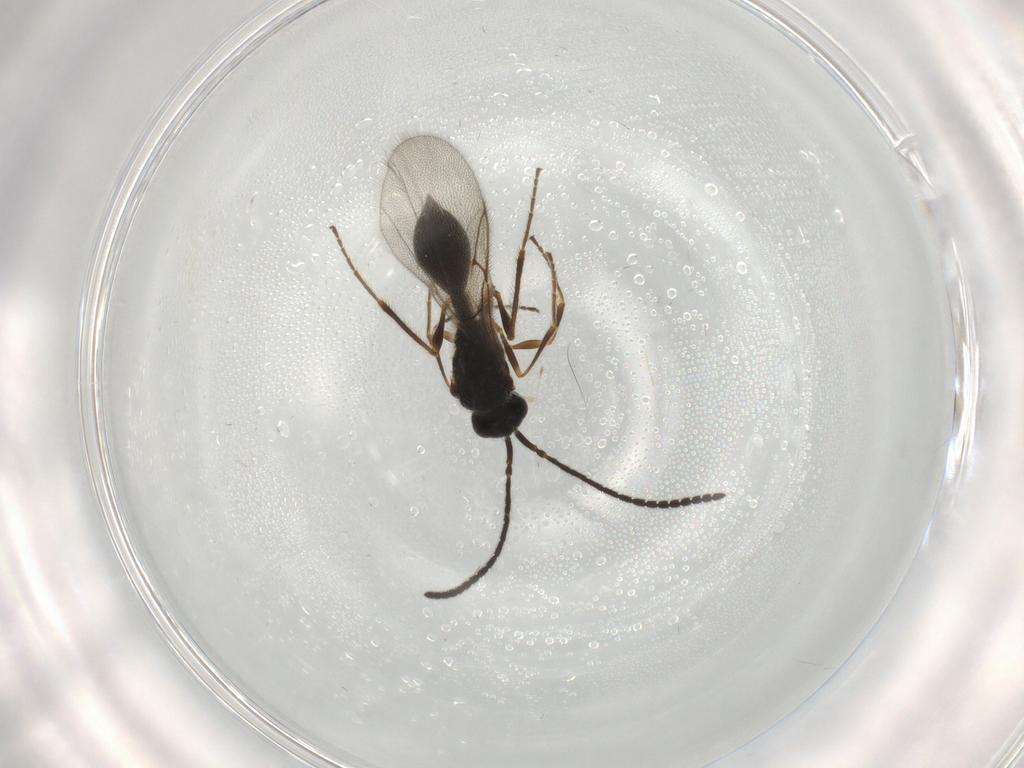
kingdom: Animalia
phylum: Arthropoda
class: Insecta
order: Hymenoptera
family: Diapriidae
